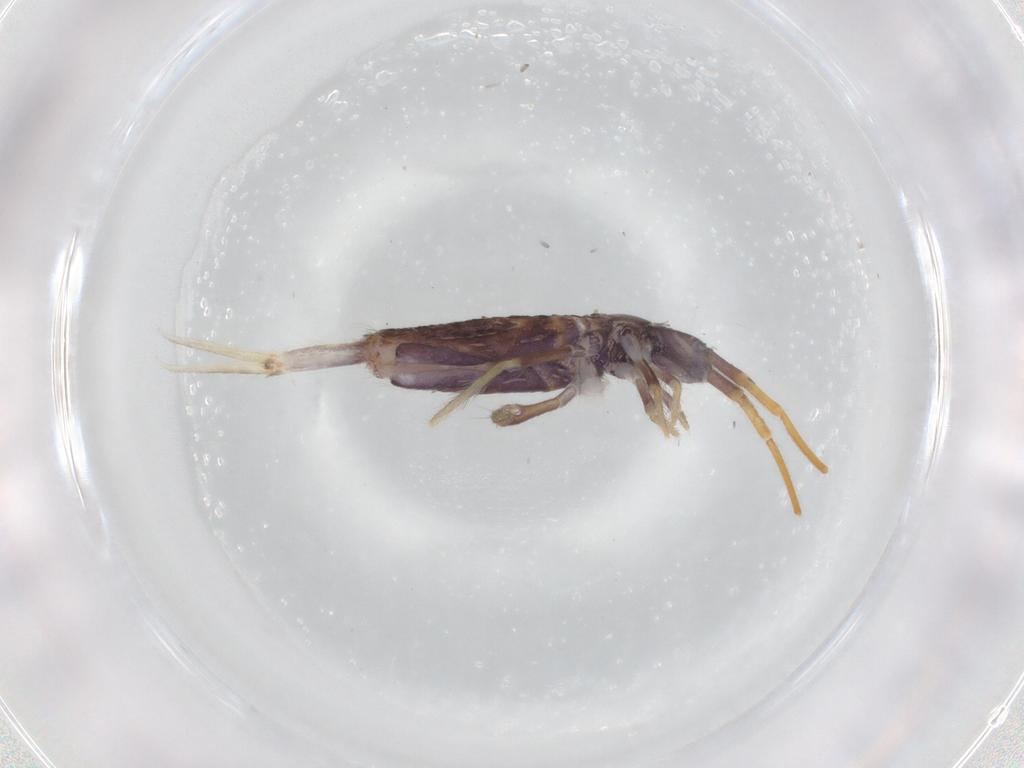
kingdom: Animalia
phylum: Arthropoda
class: Collembola
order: Entomobryomorpha
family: Entomobryidae
